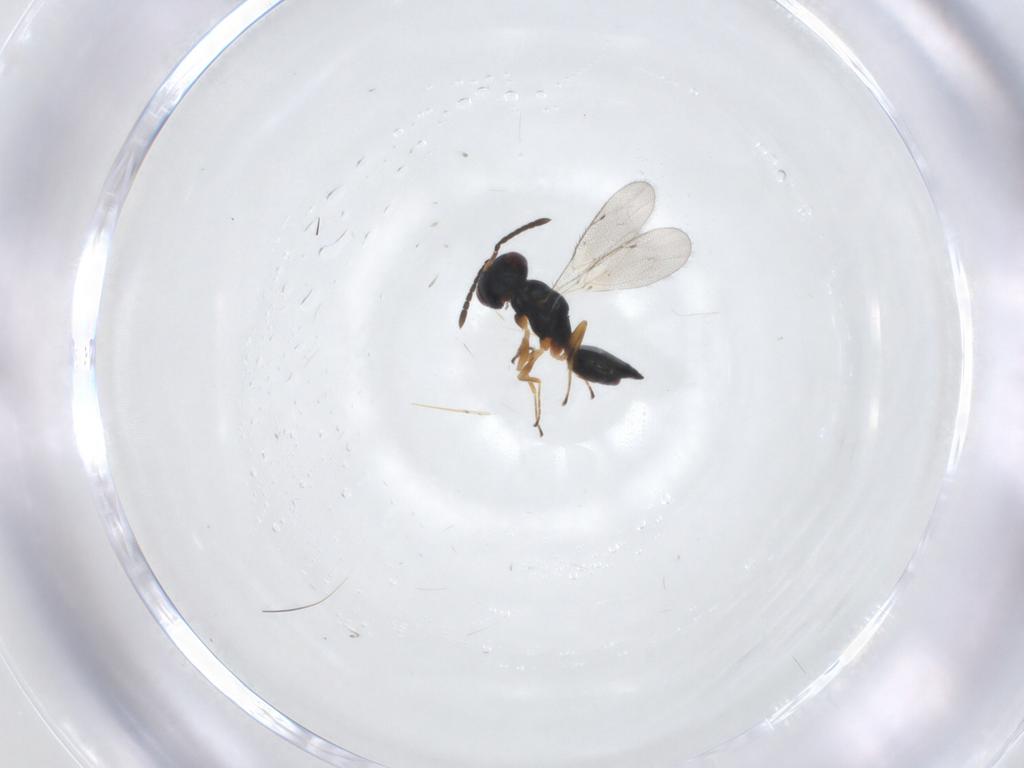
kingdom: Animalia
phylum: Arthropoda
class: Insecta
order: Hymenoptera
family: Pteromalidae
